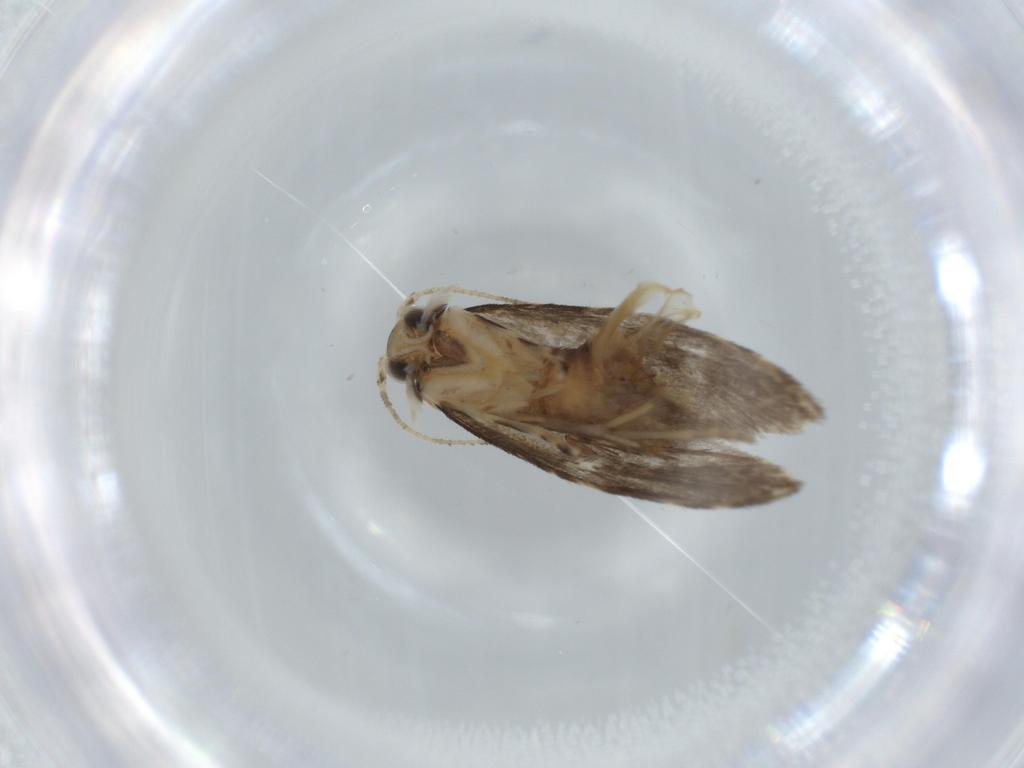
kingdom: Animalia
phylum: Arthropoda
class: Insecta
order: Lepidoptera
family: Tineidae
